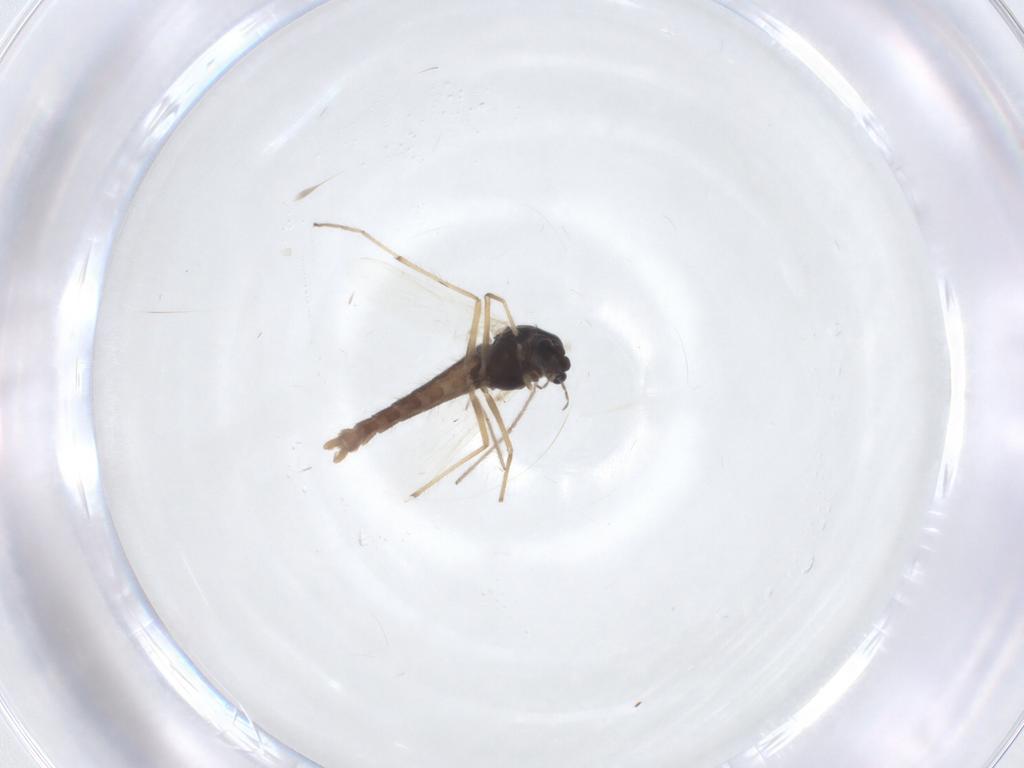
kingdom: Animalia
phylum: Arthropoda
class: Insecta
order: Diptera
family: Chironomidae
